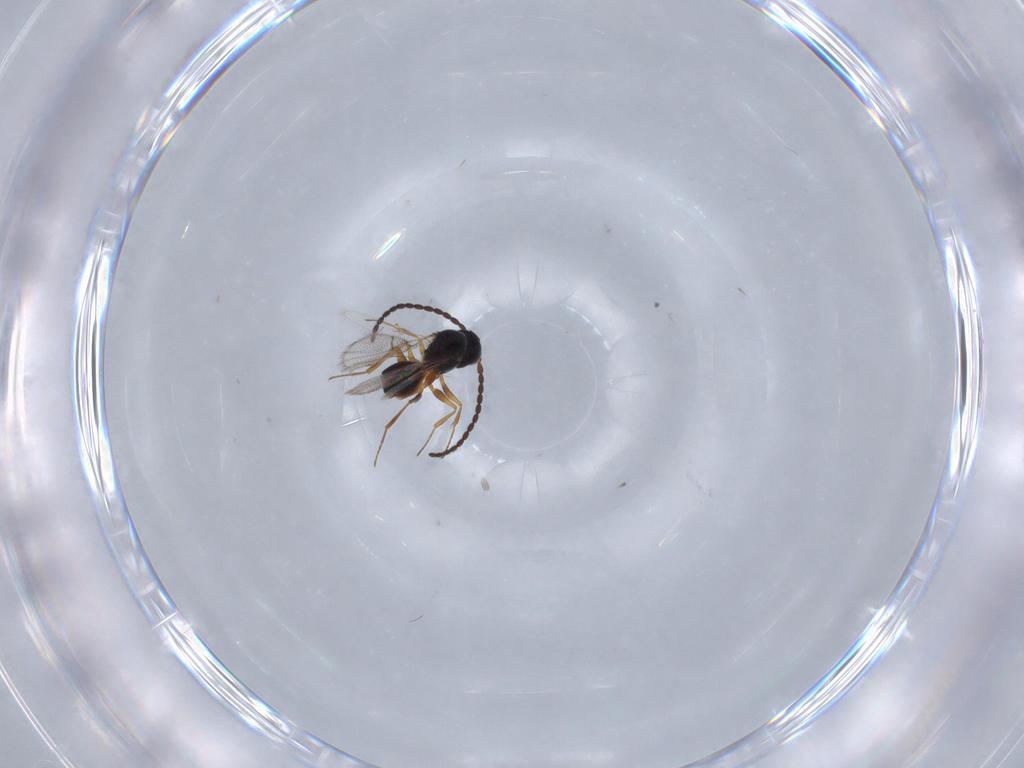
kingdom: Animalia
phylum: Arthropoda
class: Insecta
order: Hymenoptera
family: Figitidae
